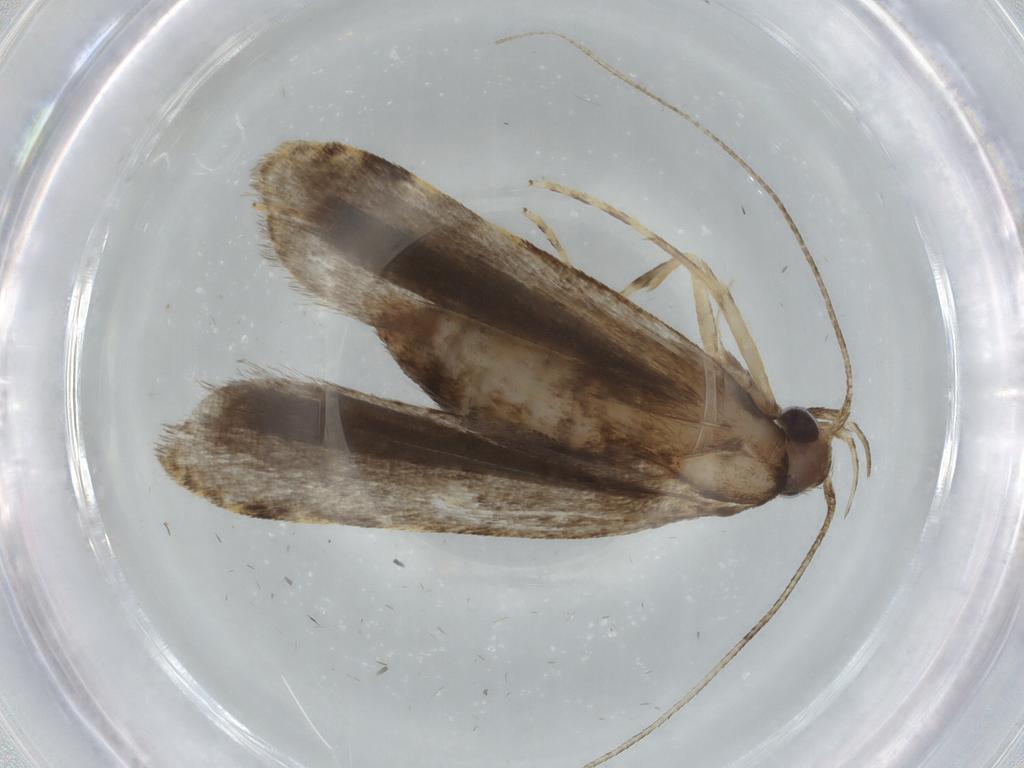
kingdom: Animalia
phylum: Arthropoda
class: Insecta
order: Lepidoptera
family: Autostichidae
